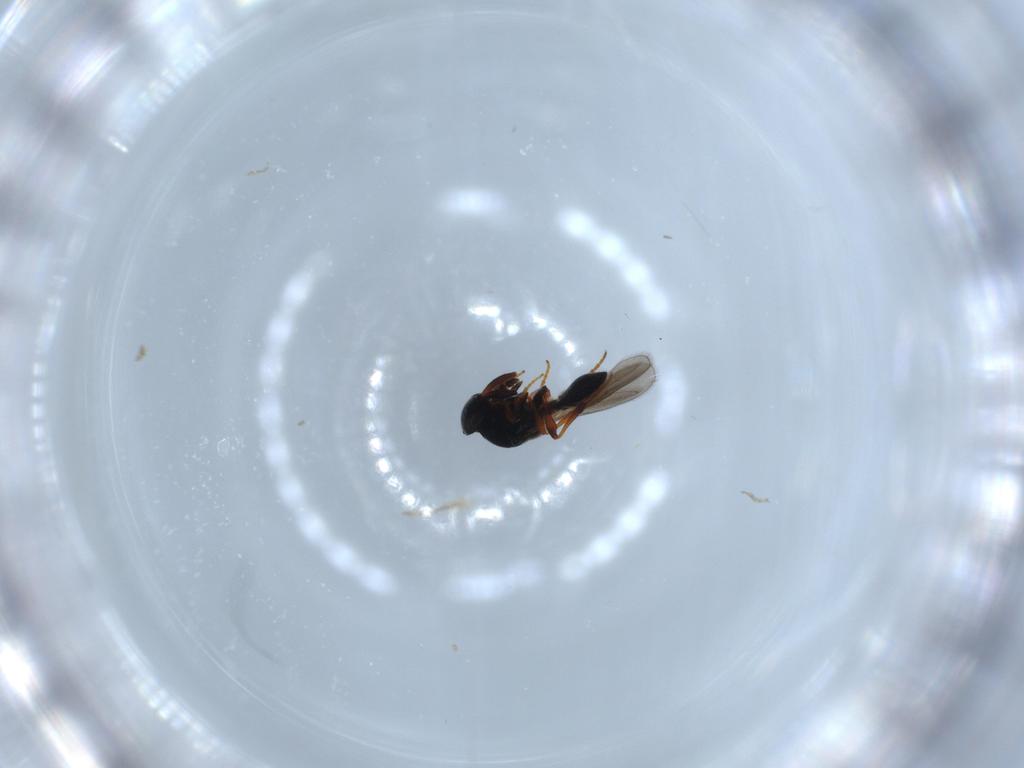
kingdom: Animalia
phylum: Arthropoda
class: Insecta
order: Hymenoptera
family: Platygastridae
